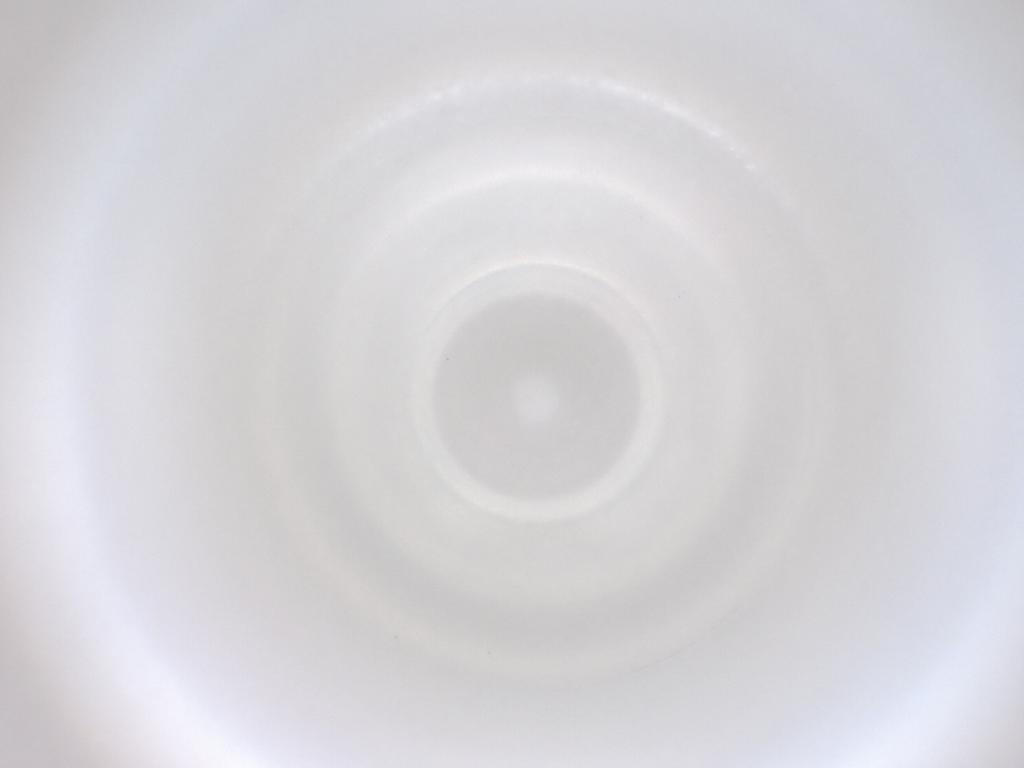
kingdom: Animalia
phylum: Arthropoda
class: Insecta
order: Diptera
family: Cecidomyiidae
